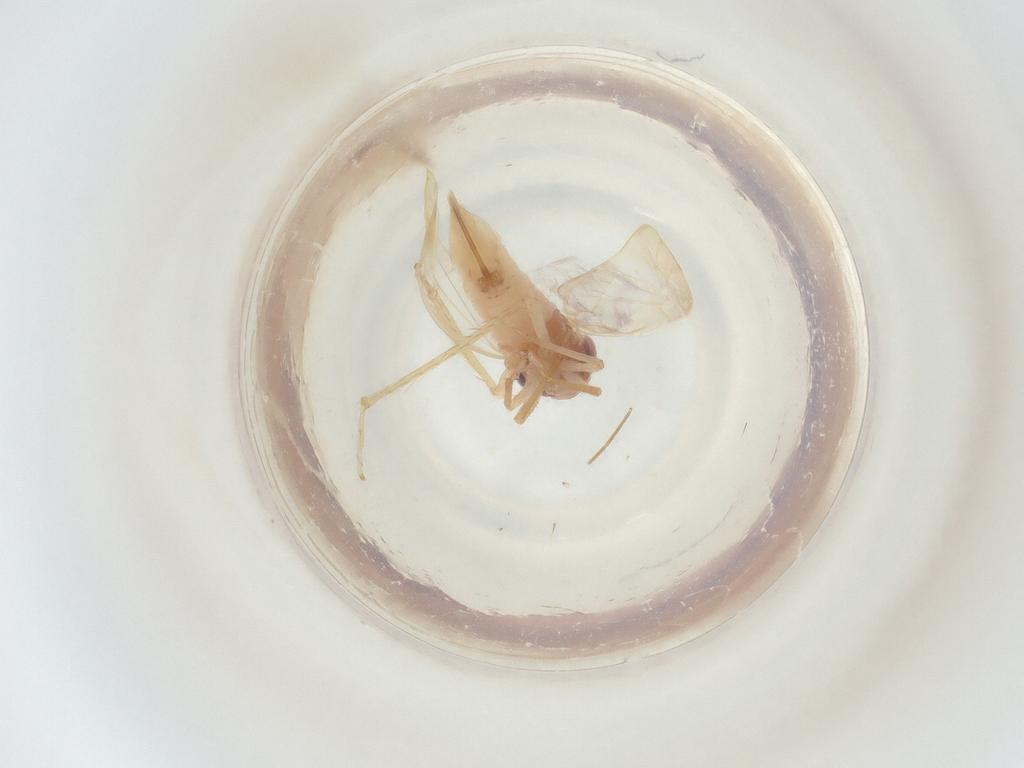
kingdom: Animalia
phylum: Arthropoda
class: Insecta
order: Hemiptera
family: Cicadellidae
